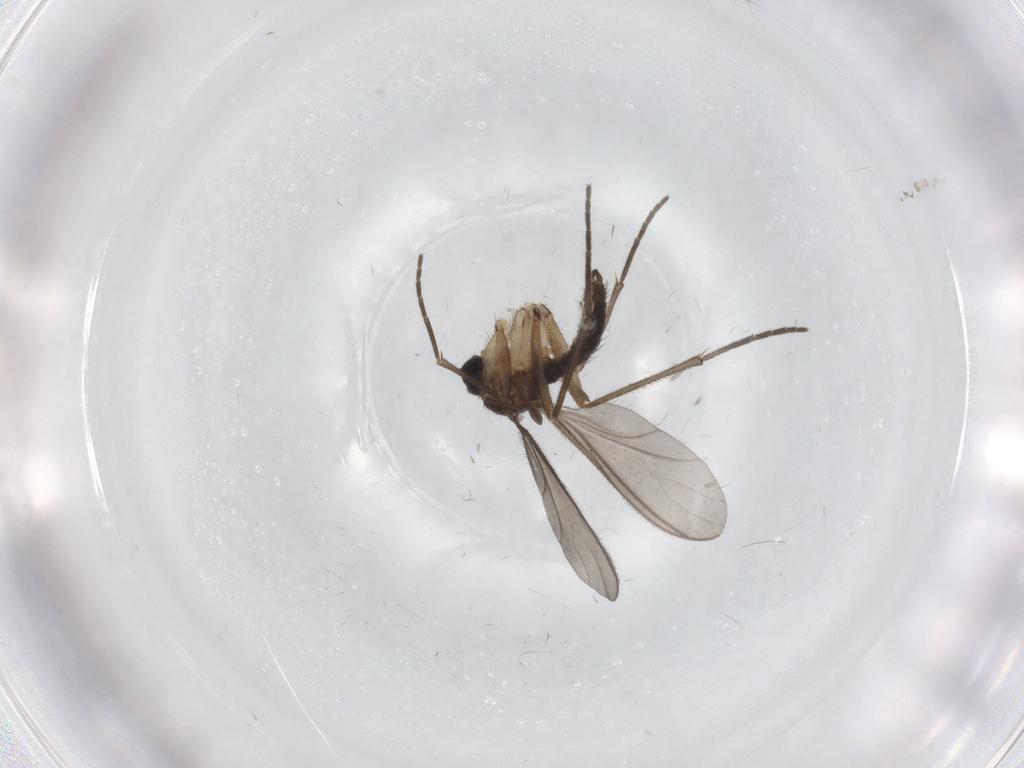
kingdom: Animalia
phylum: Arthropoda
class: Insecta
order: Diptera
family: Sciaridae
